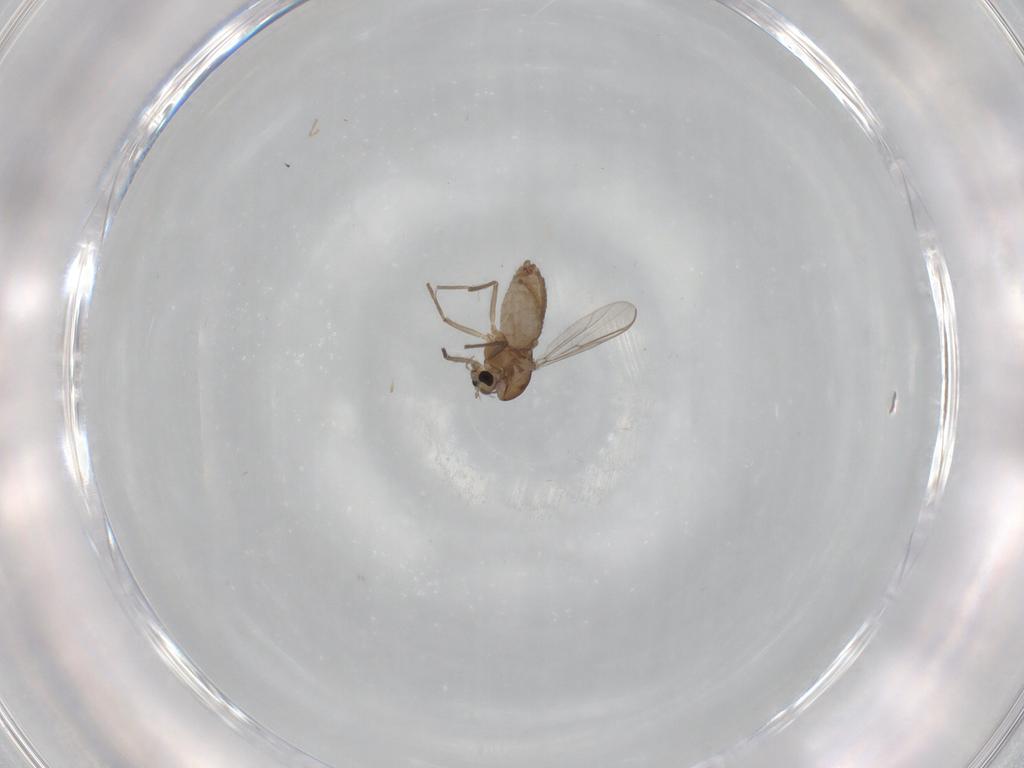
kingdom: Animalia
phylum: Arthropoda
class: Insecta
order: Diptera
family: Chironomidae
